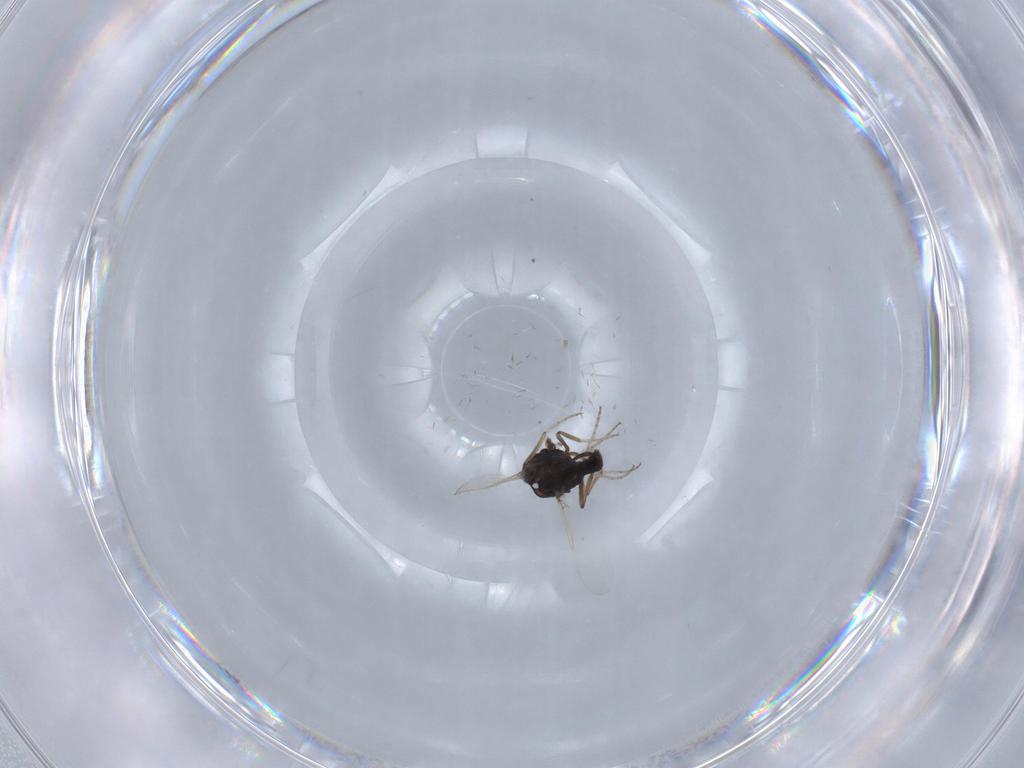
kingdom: Animalia
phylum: Arthropoda
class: Insecta
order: Diptera
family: Ceratopogonidae
